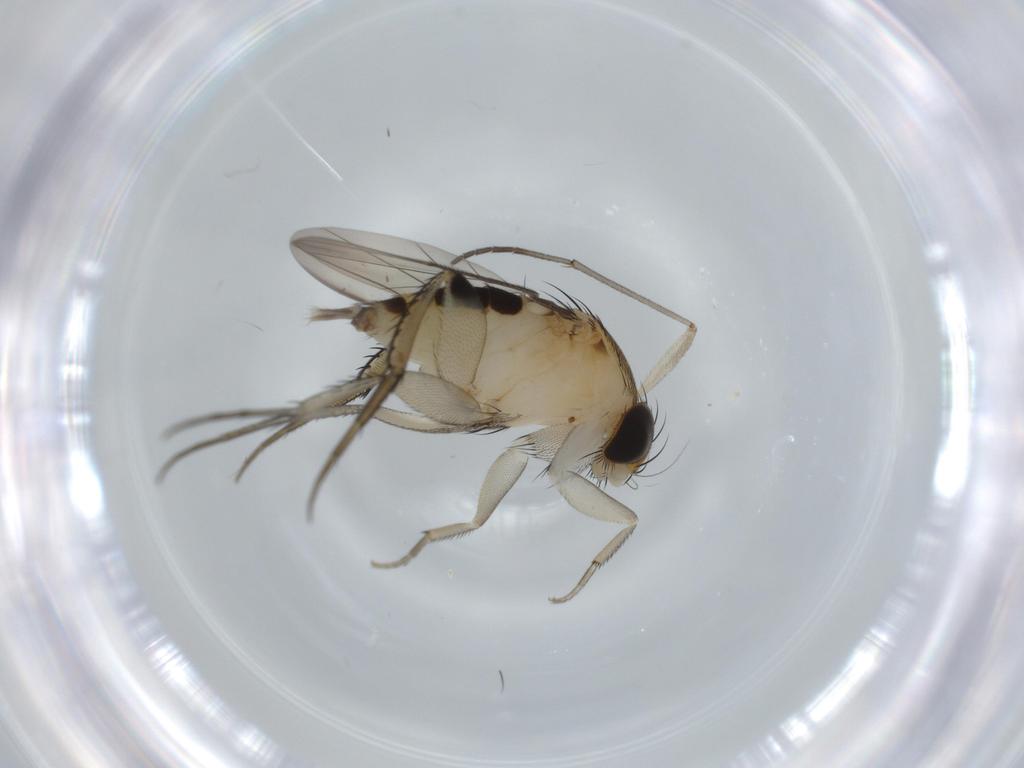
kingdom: Animalia
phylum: Arthropoda
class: Insecta
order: Diptera
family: Phoridae
